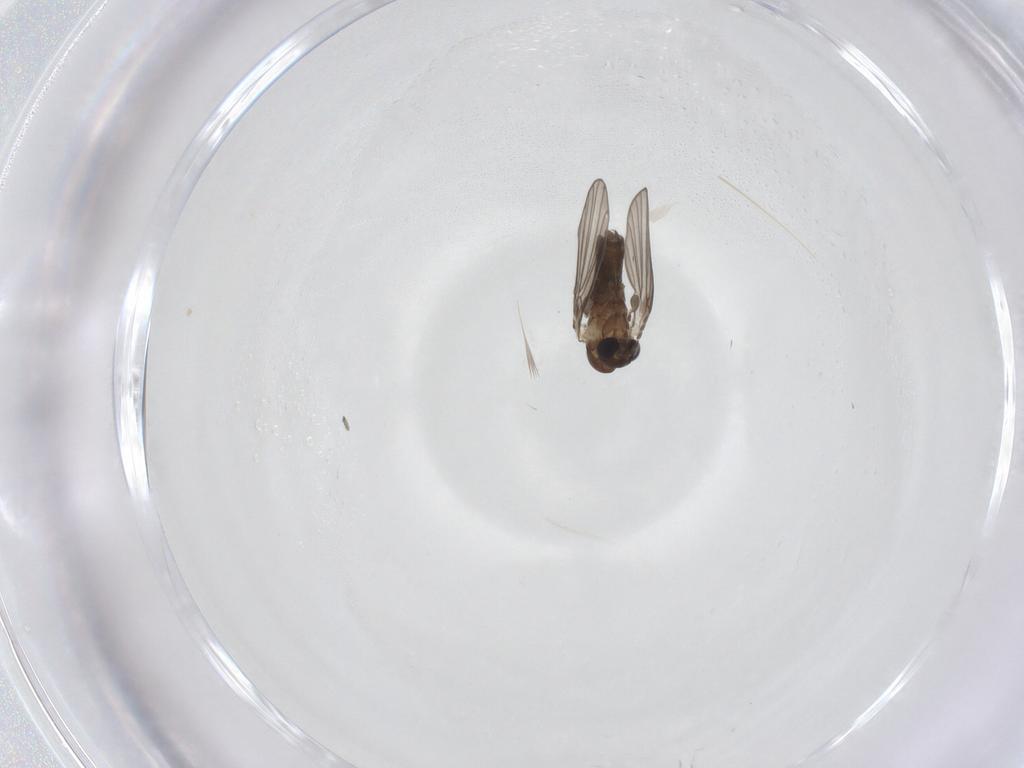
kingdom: Animalia
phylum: Arthropoda
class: Insecta
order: Diptera
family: Psychodidae
